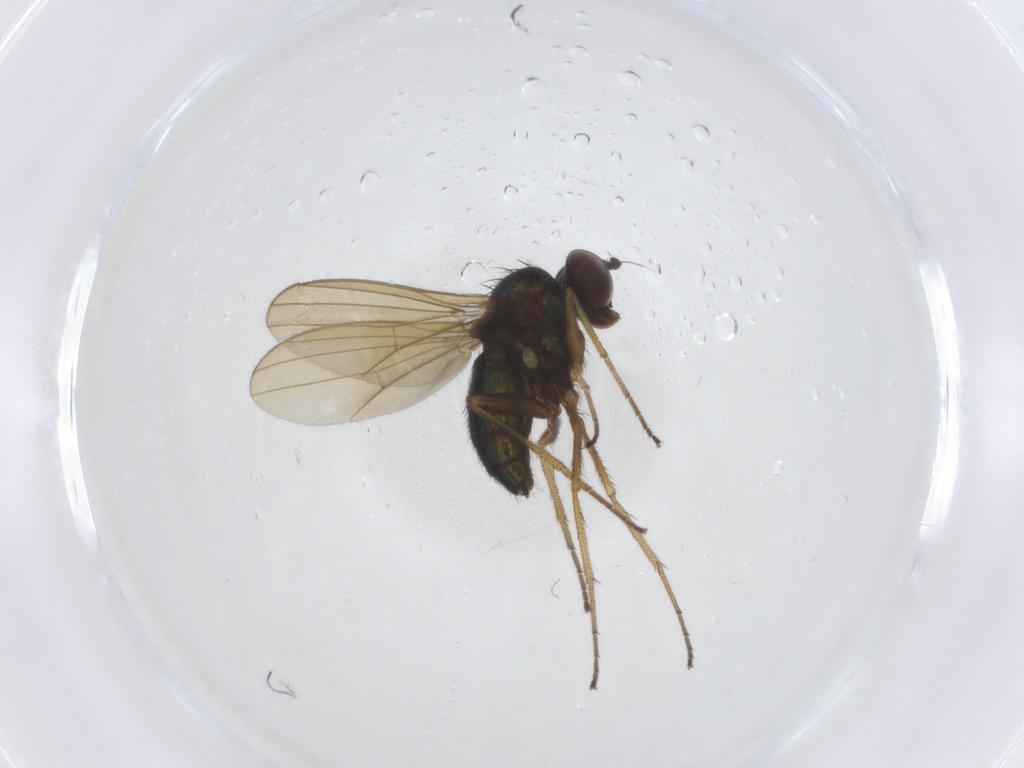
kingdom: Animalia
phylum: Arthropoda
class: Insecta
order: Diptera
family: Dolichopodidae
